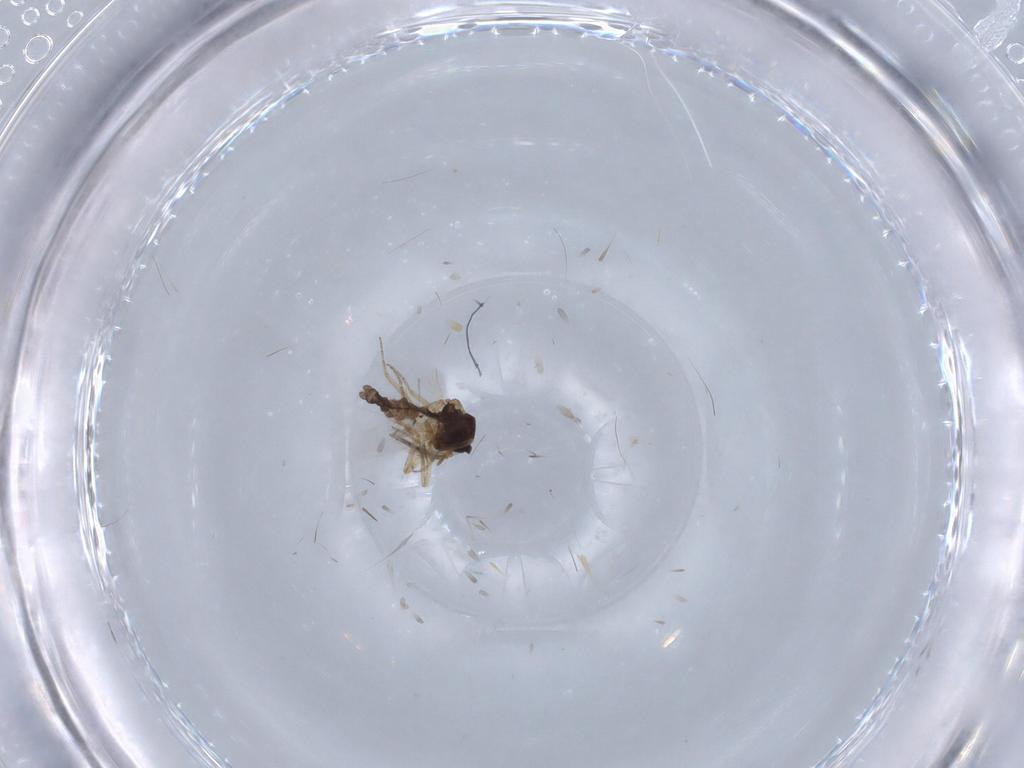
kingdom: Animalia
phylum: Arthropoda
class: Insecta
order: Diptera
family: Ceratopogonidae
